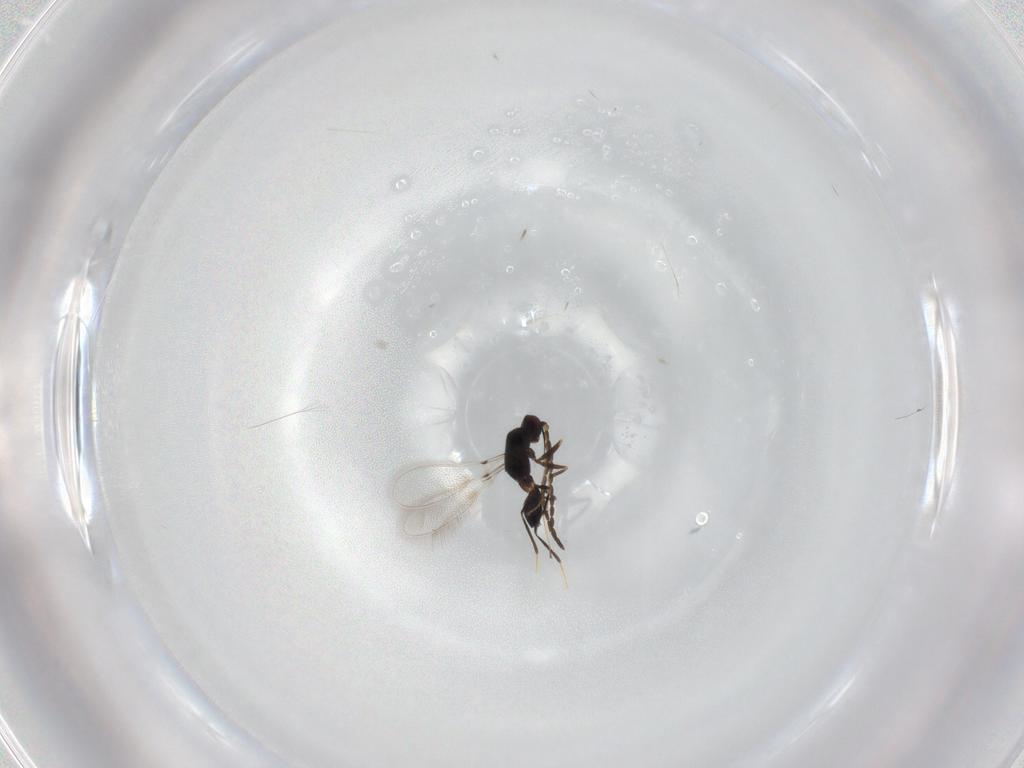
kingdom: Animalia
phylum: Arthropoda
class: Insecta
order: Hymenoptera
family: Mymaridae
